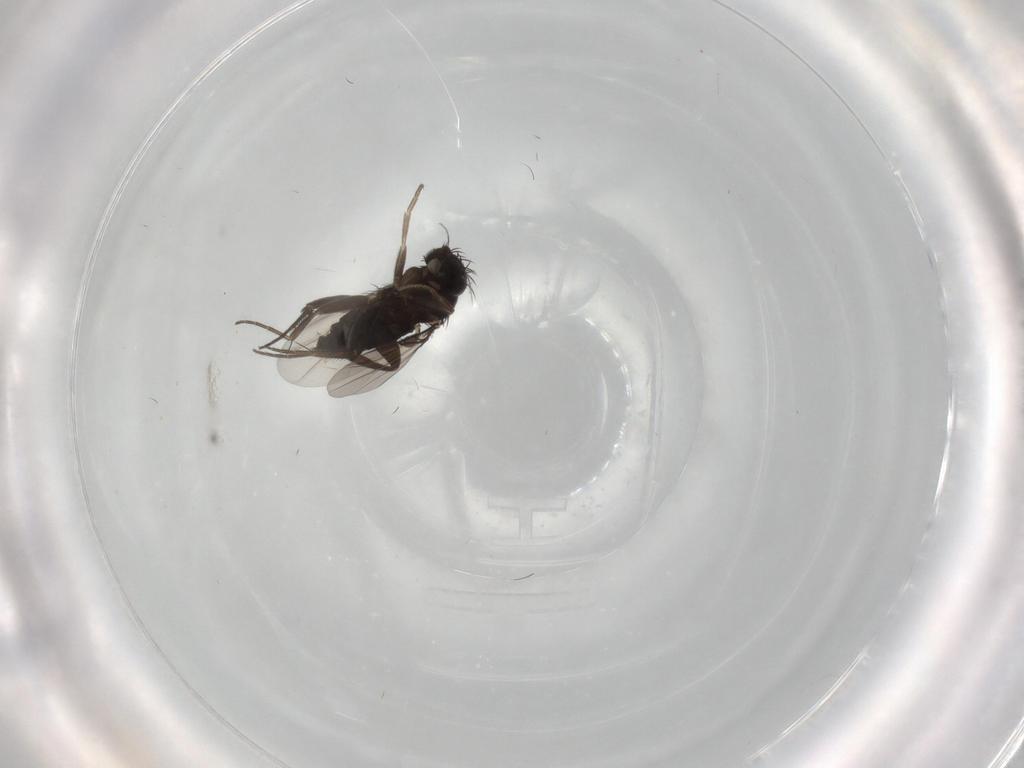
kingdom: Animalia
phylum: Arthropoda
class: Insecta
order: Diptera
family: Phoridae
